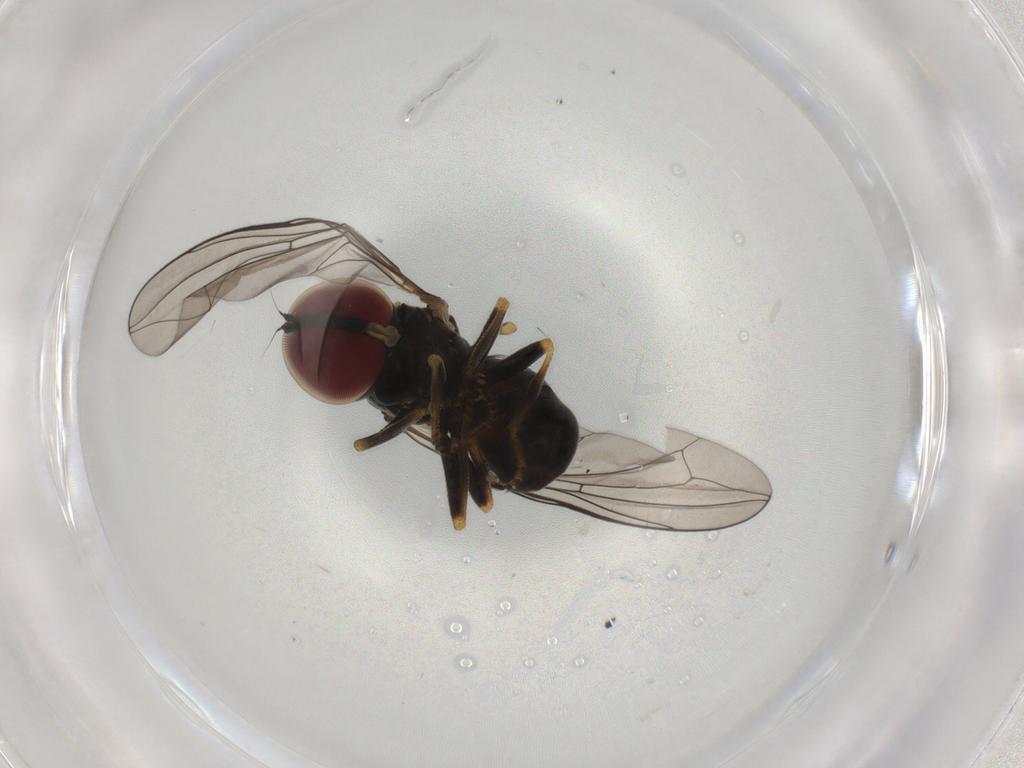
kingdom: Animalia
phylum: Arthropoda
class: Insecta
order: Diptera
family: Pipunculidae
